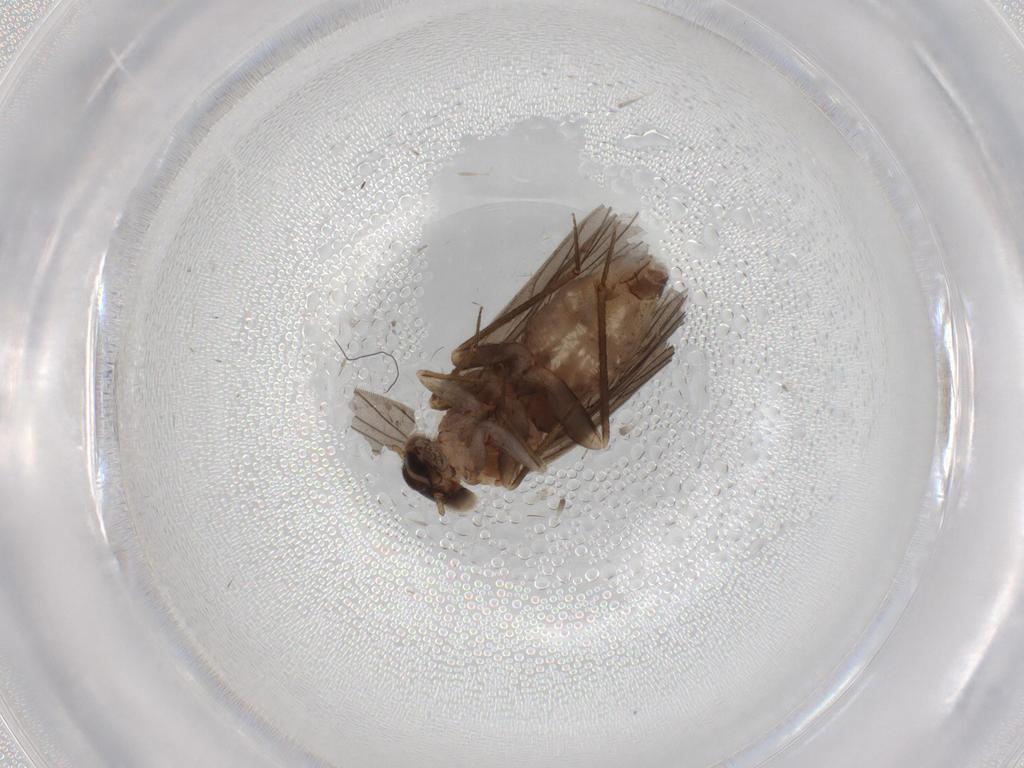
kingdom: Animalia
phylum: Arthropoda
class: Insecta
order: Psocodea
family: Lepidopsocidae
